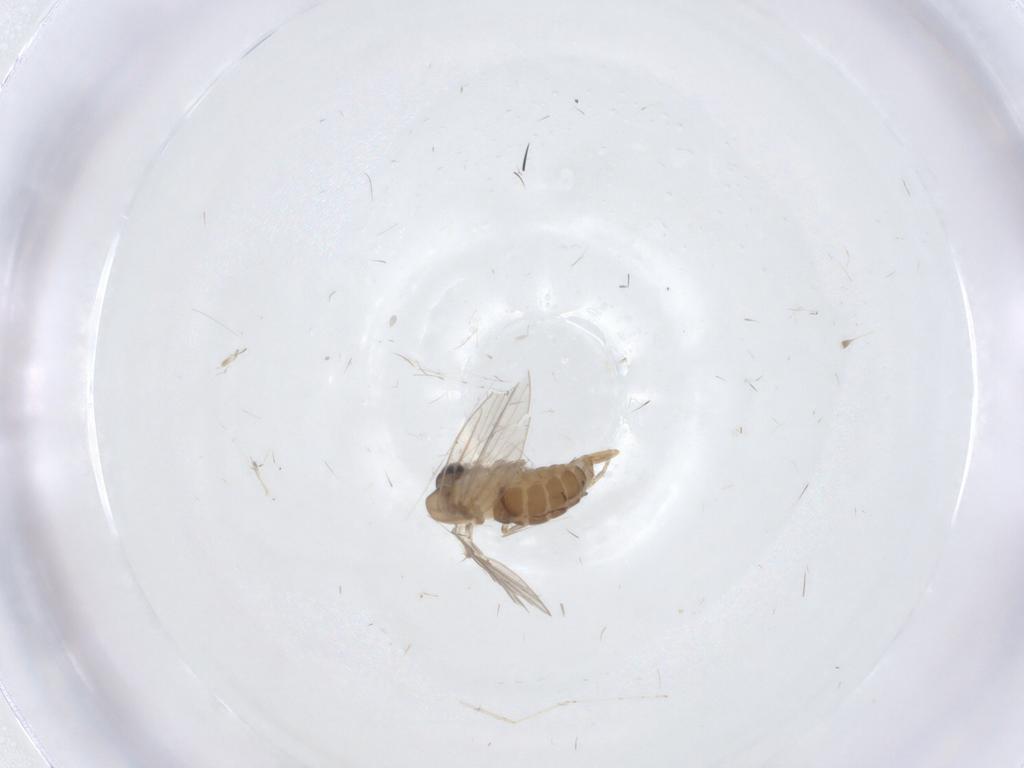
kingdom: Animalia
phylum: Arthropoda
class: Insecta
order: Diptera
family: Psychodidae
